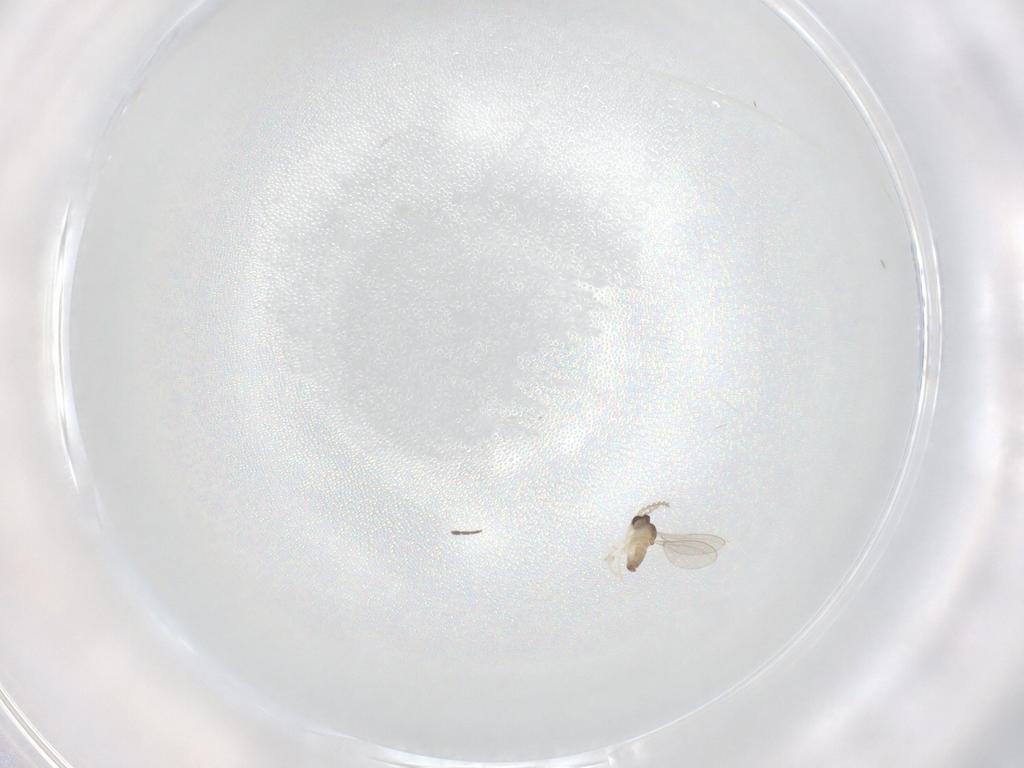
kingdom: Animalia
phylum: Arthropoda
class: Insecta
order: Diptera
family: Cecidomyiidae
